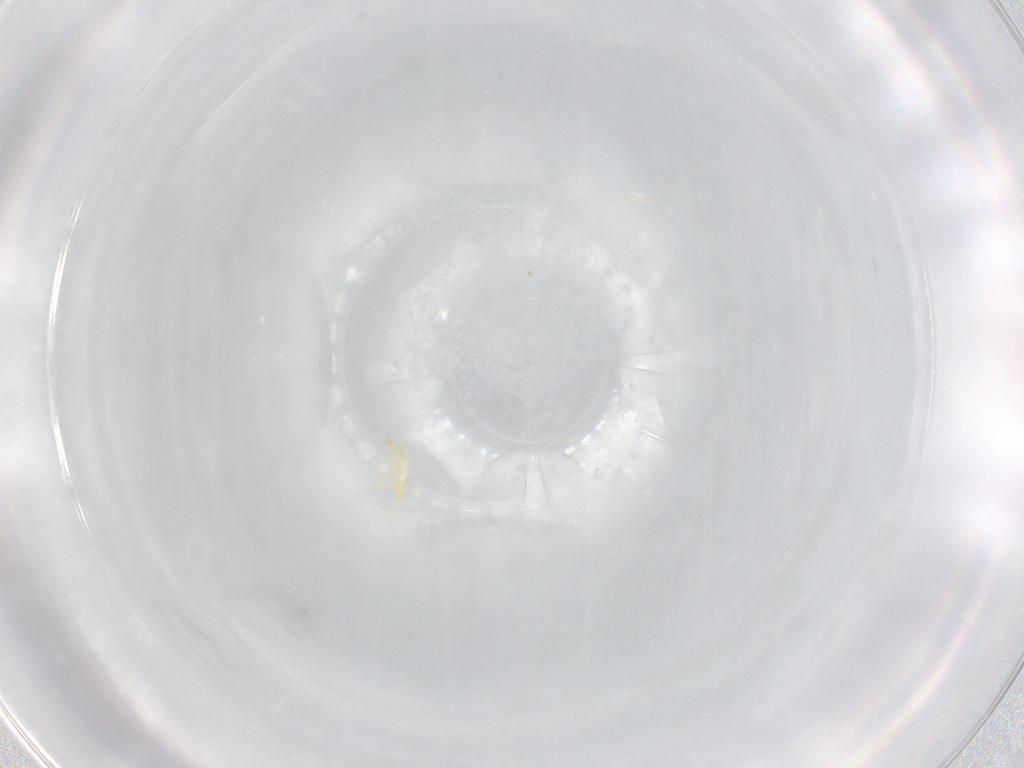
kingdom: Animalia
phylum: Arthropoda
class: Arachnida
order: Trombidiformes
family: Erythraeidae
